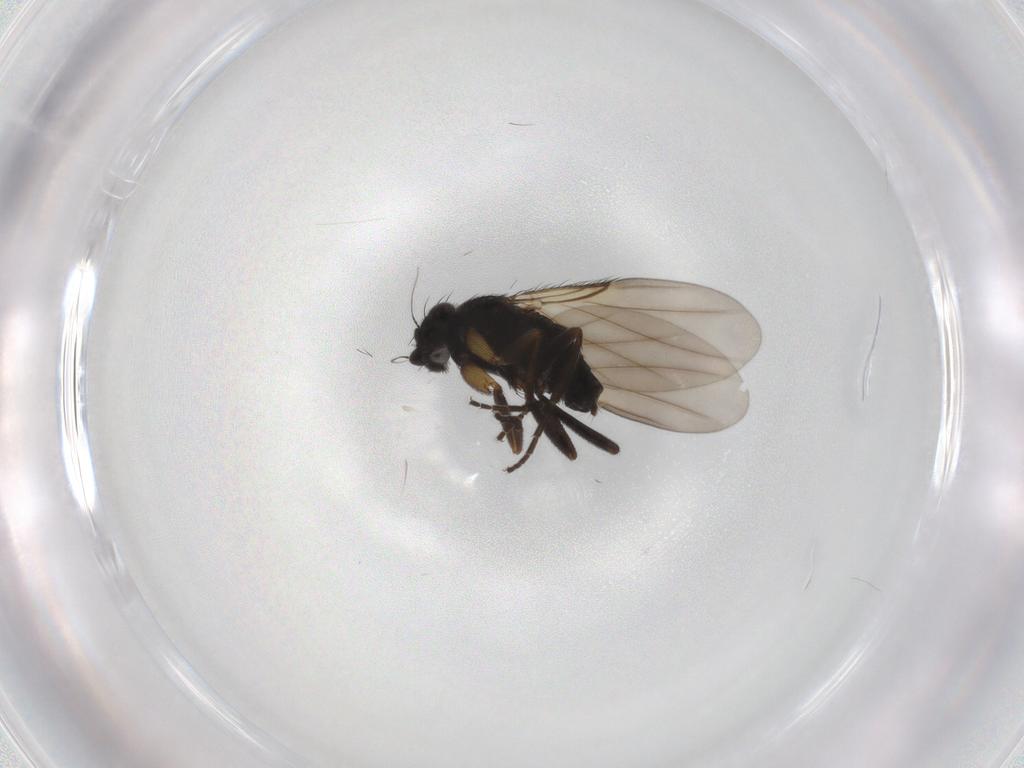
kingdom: Animalia
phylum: Arthropoda
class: Insecta
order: Diptera
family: Phoridae
